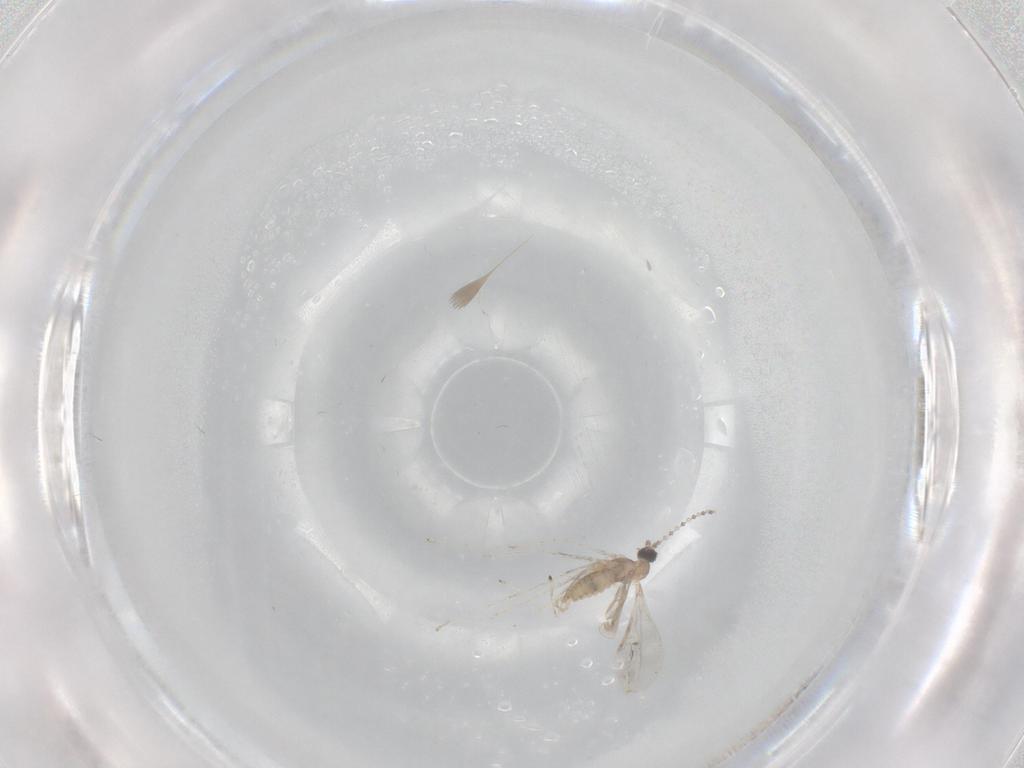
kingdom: Animalia
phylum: Arthropoda
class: Insecta
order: Diptera
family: Cecidomyiidae
